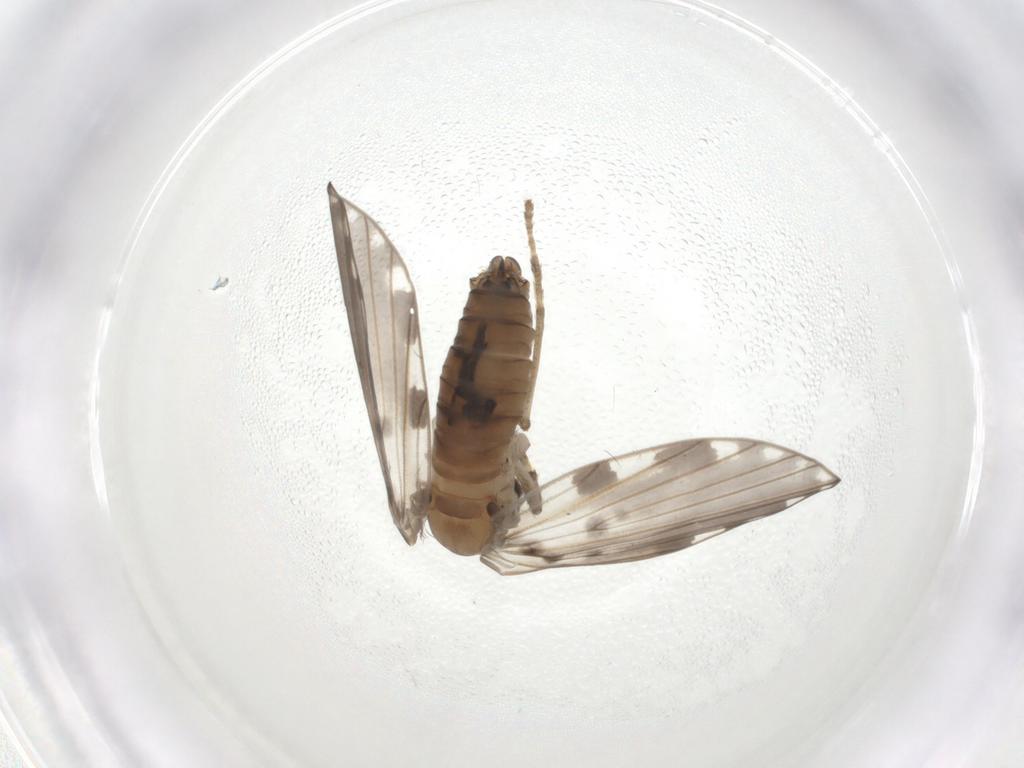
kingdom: Animalia
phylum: Arthropoda
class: Insecta
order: Diptera
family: Psychodidae
